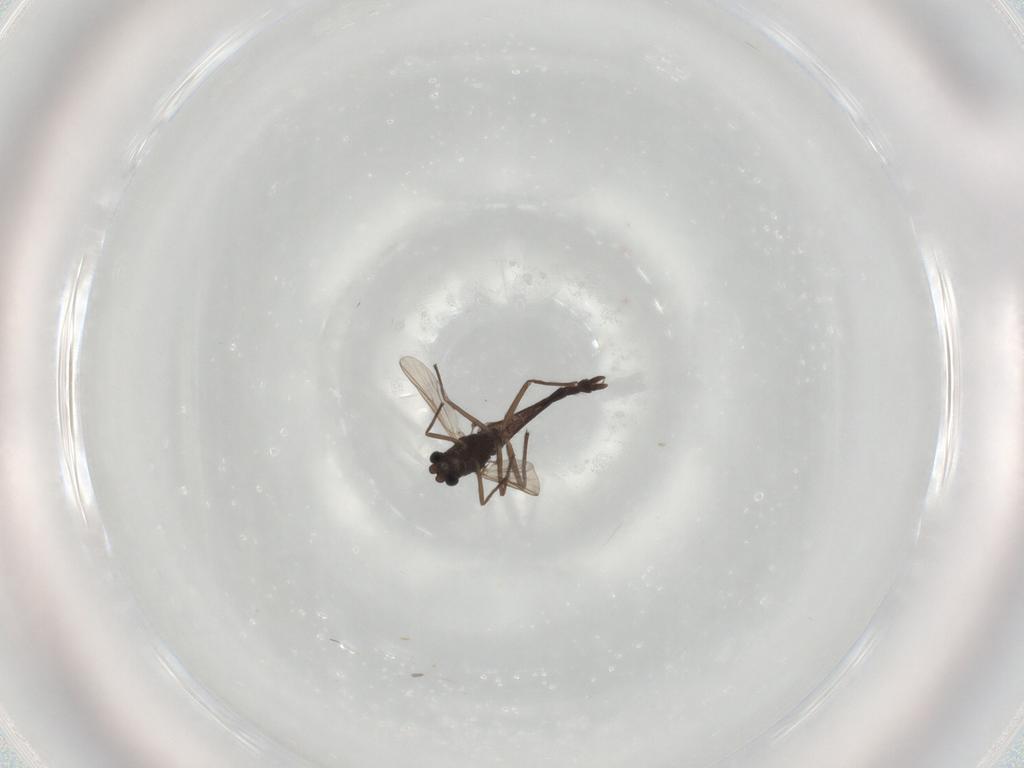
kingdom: Animalia
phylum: Arthropoda
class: Insecta
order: Diptera
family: Chironomidae
